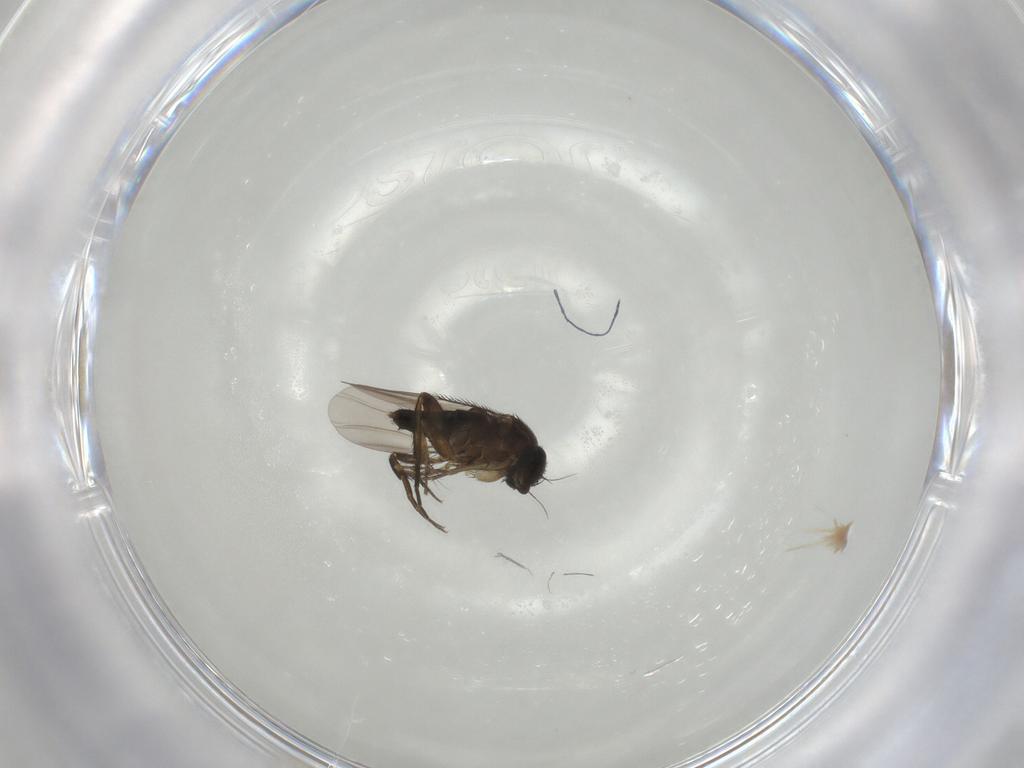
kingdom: Animalia
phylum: Arthropoda
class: Insecta
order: Diptera
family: Phoridae
